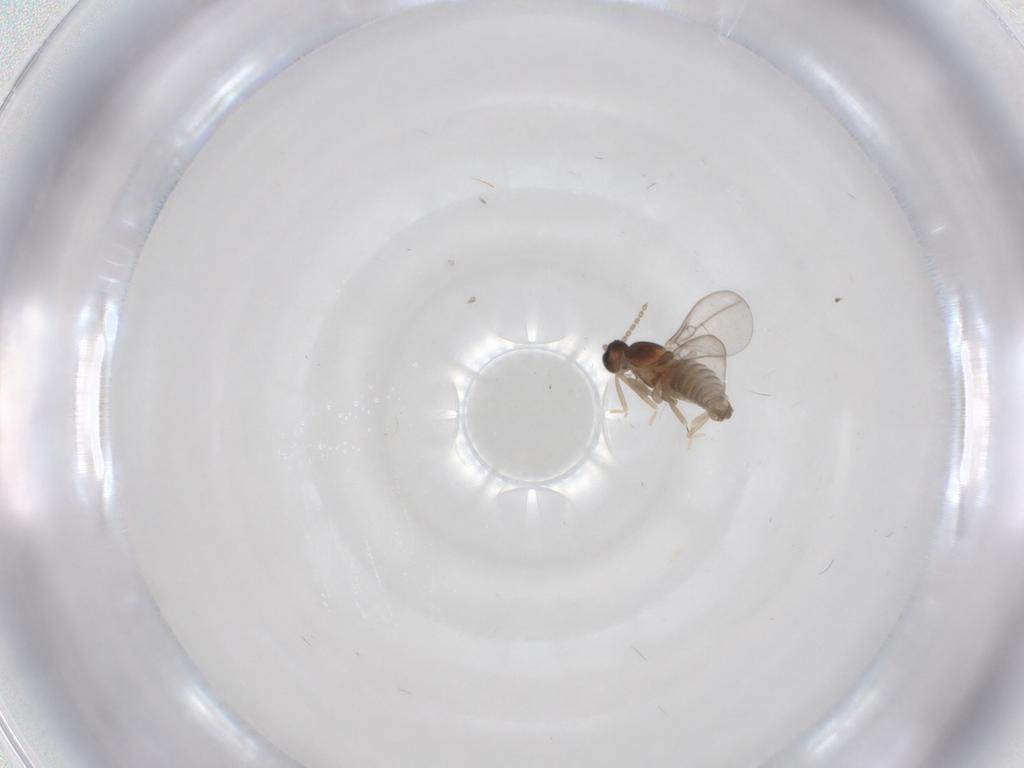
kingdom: Animalia
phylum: Arthropoda
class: Insecta
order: Diptera
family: Cecidomyiidae
